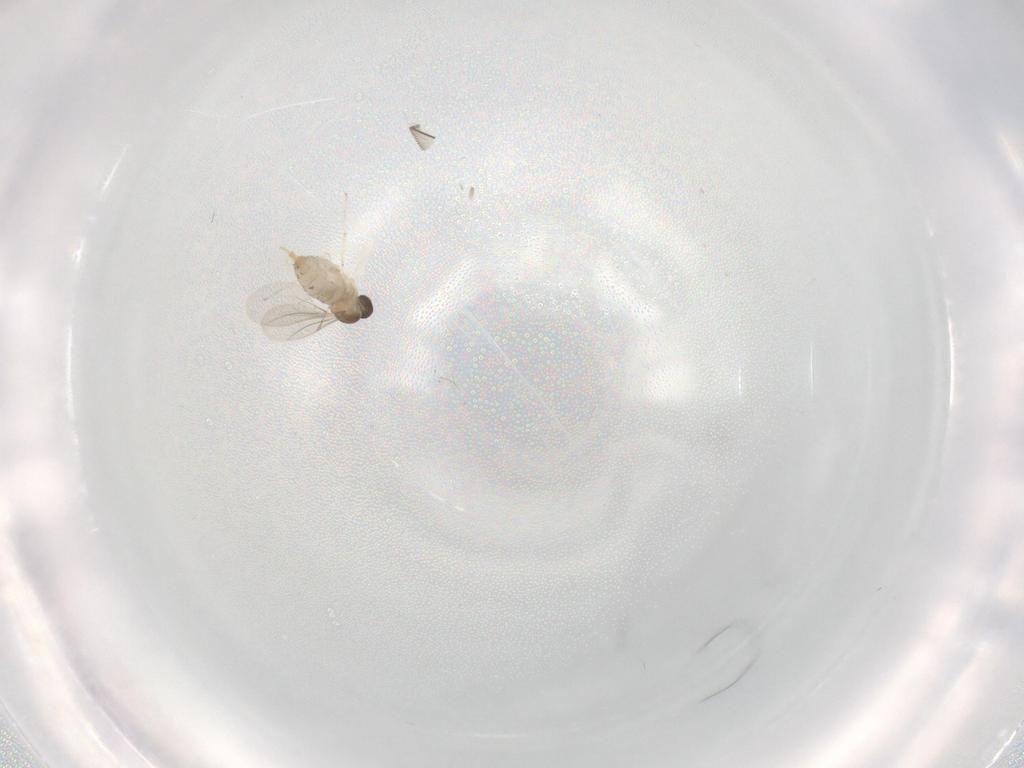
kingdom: Animalia
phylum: Arthropoda
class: Insecta
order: Diptera
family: Cecidomyiidae
